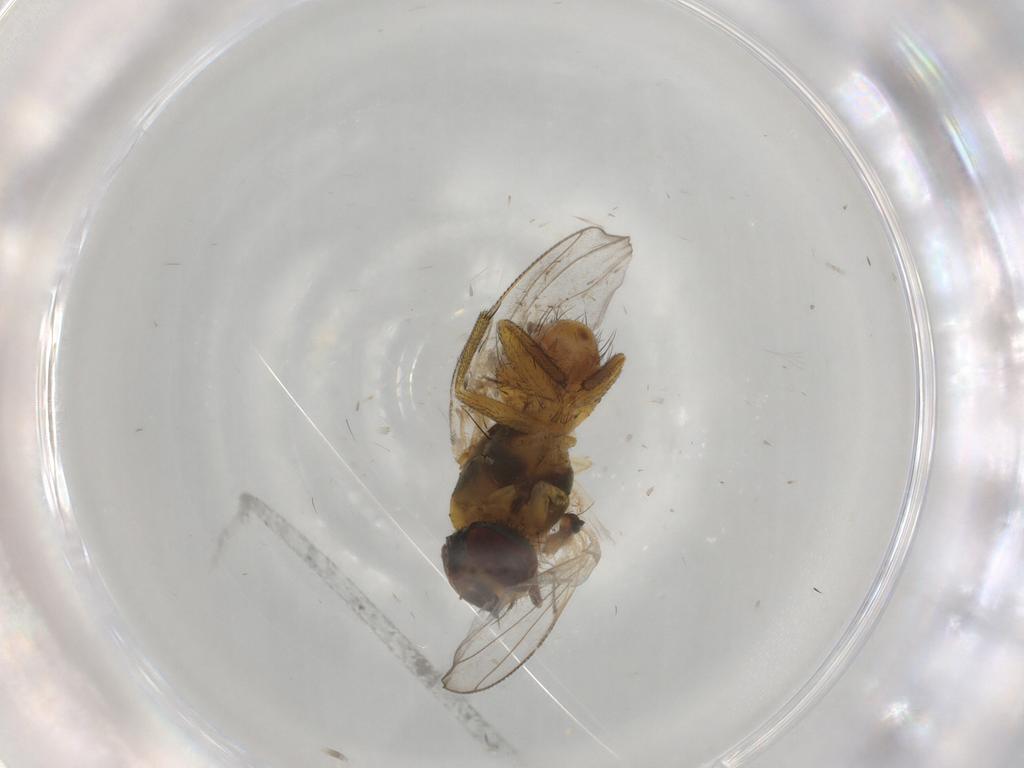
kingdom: Animalia
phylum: Arthropoda
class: Insecta
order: Diptera
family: Muscidae
